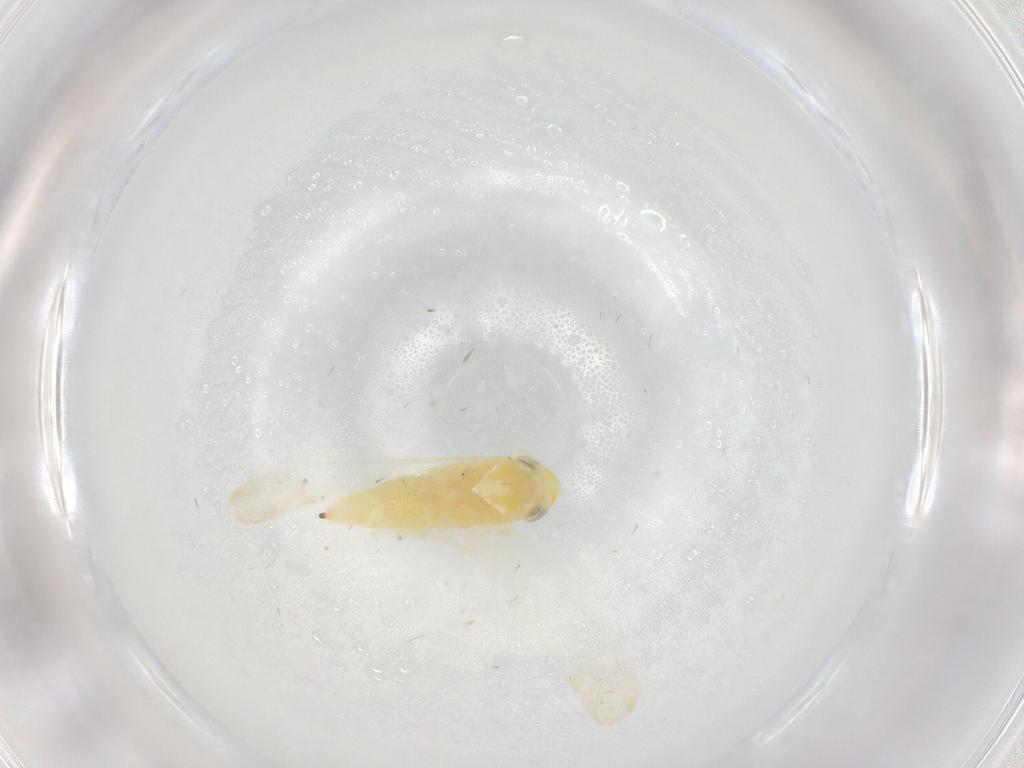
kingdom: Animalia
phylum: Arthropoda
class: Insecta
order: Hemiptera
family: Cicadellidae
